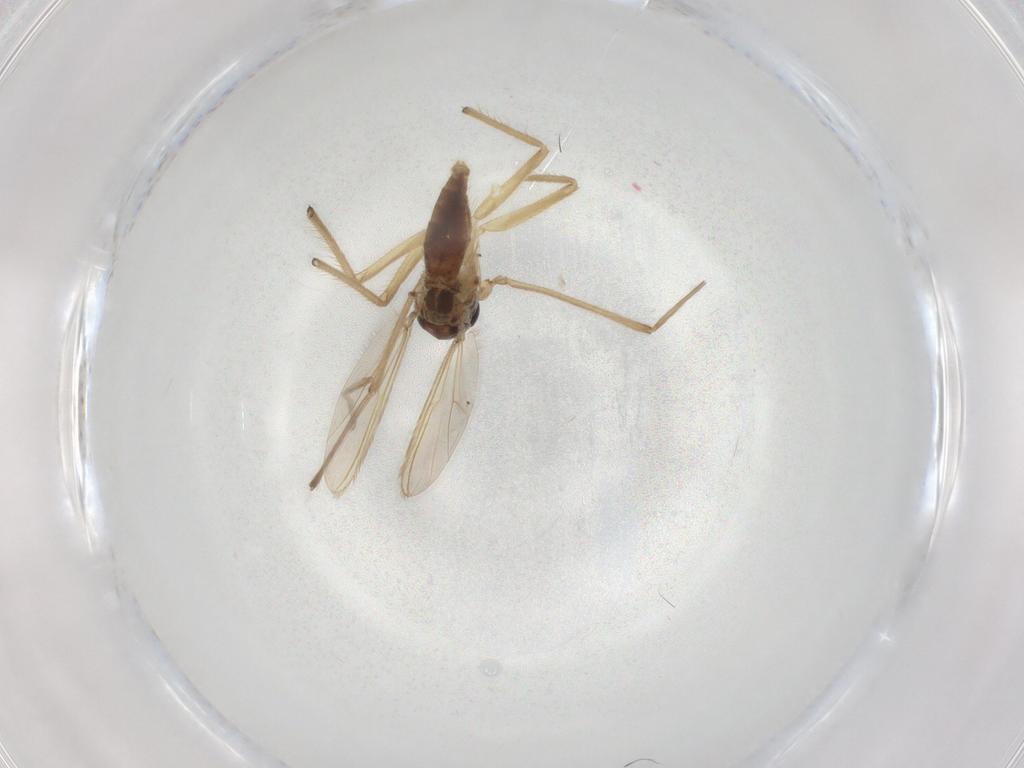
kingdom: Animalia
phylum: Arthropoda
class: Insecta
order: Diptera
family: Chironomidae
